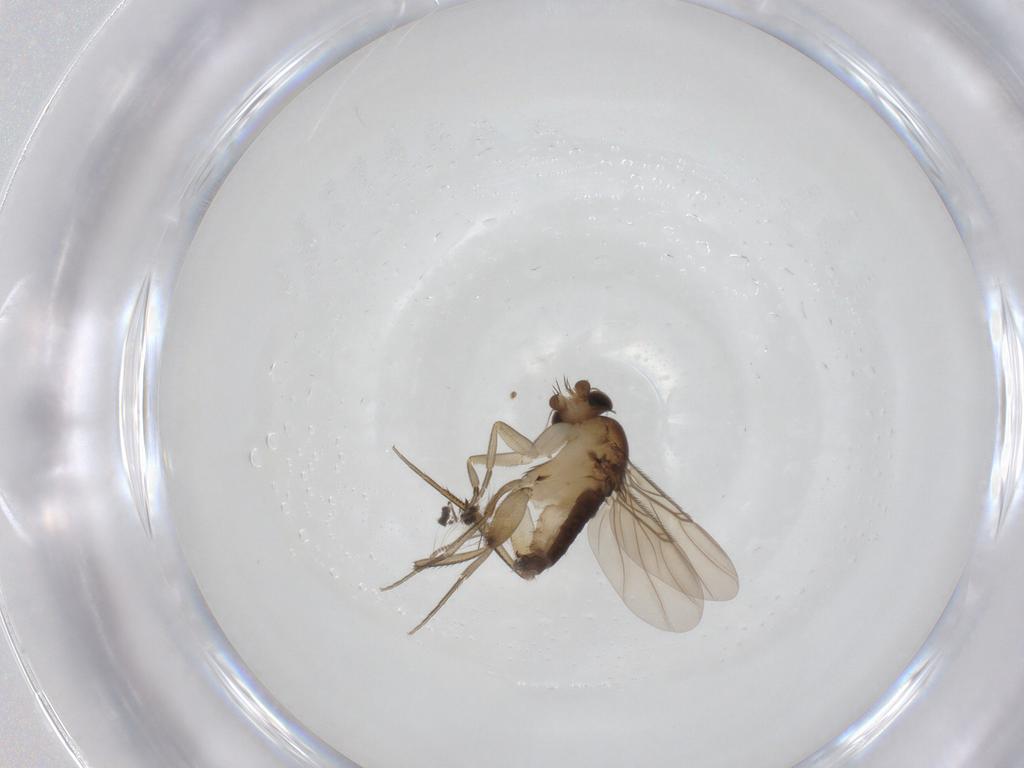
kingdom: Animalia
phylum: Arthropoda
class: Insecta
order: Diptera
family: Phoridae
